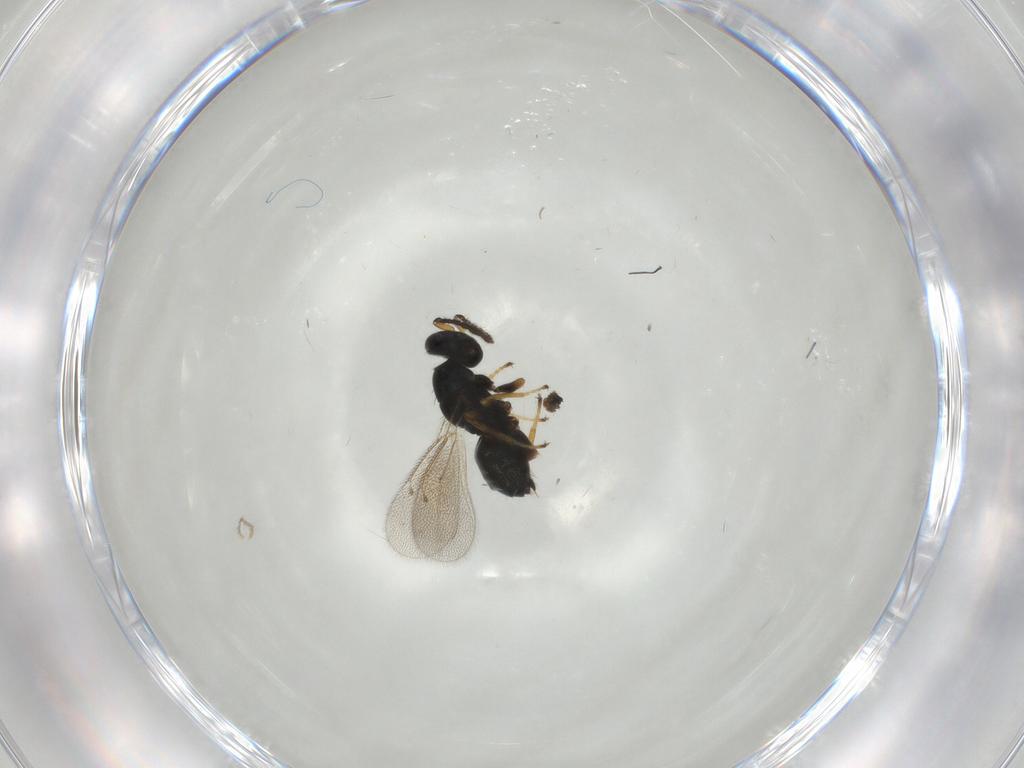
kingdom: Animalia
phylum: Arthropoda
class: Insecta
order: Hymenoptera
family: Eulophidae
